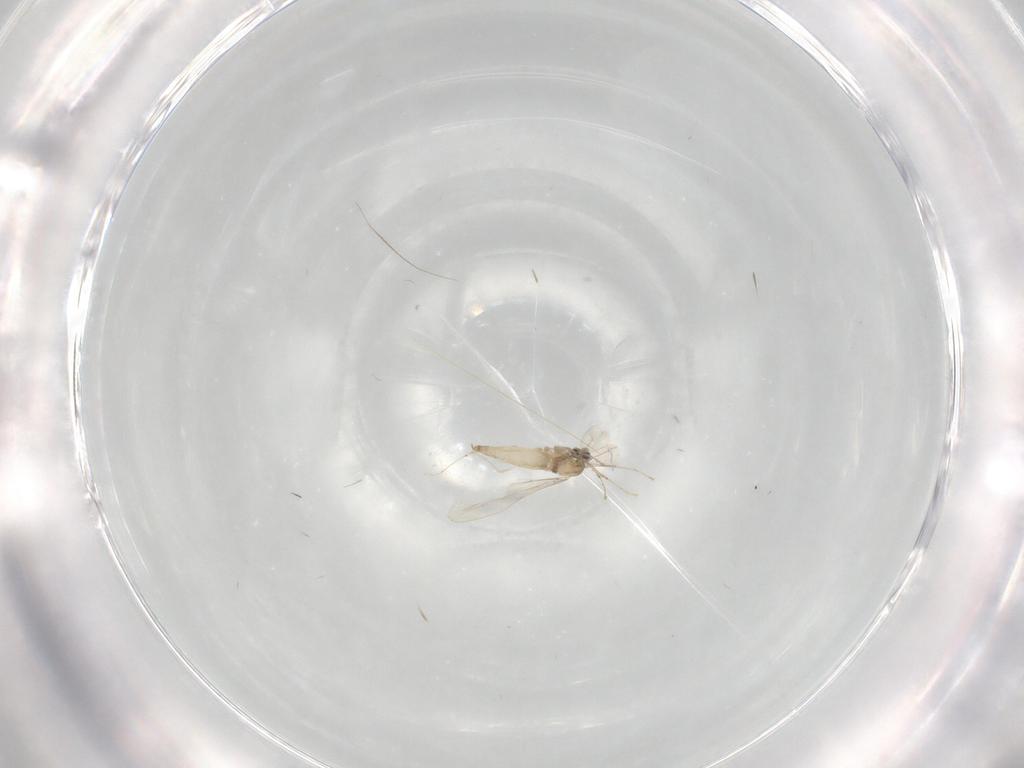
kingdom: Animalia
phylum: Arthropoda
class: Insecta
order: Diptera
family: Cecidomyiidae
